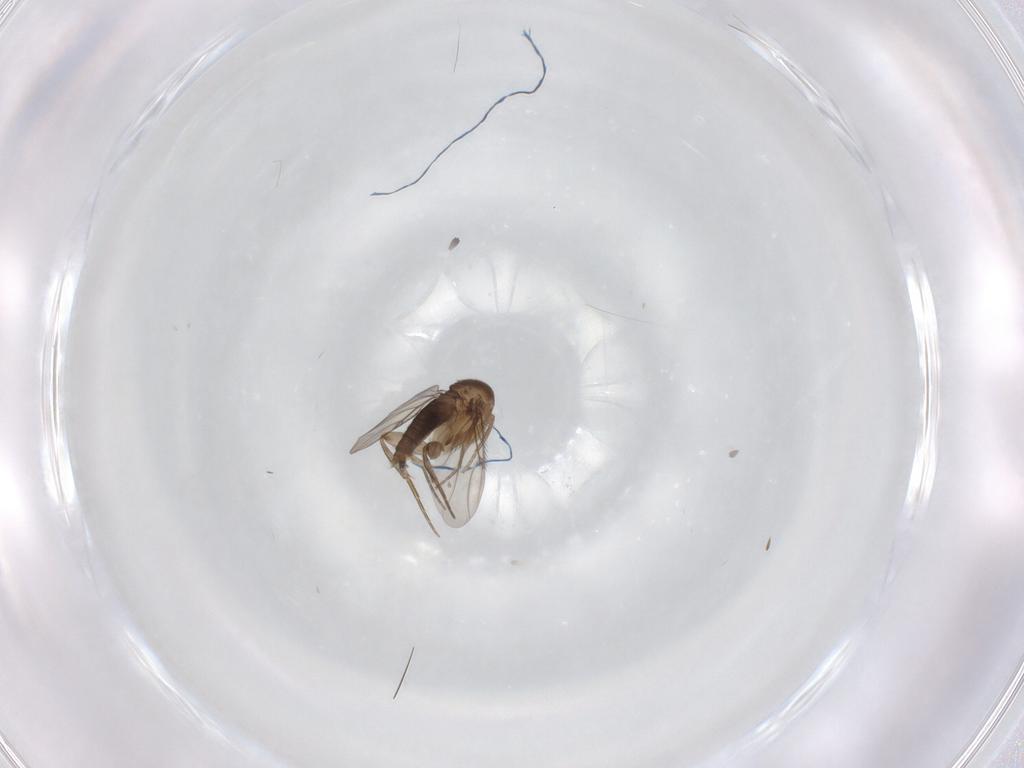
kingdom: Animalia
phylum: Arthropoda
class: Insecta
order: Diptera
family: Phoridae
